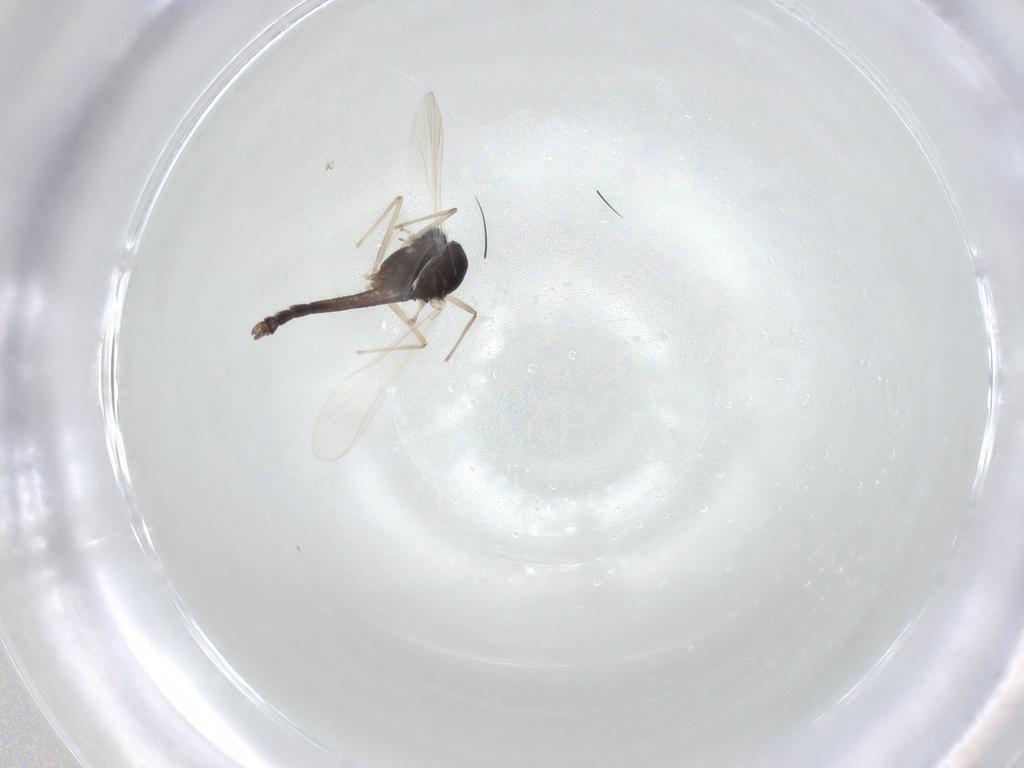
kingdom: Animalia
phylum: Arthropoda
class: Insecta
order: Diptera
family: Chironomidae
